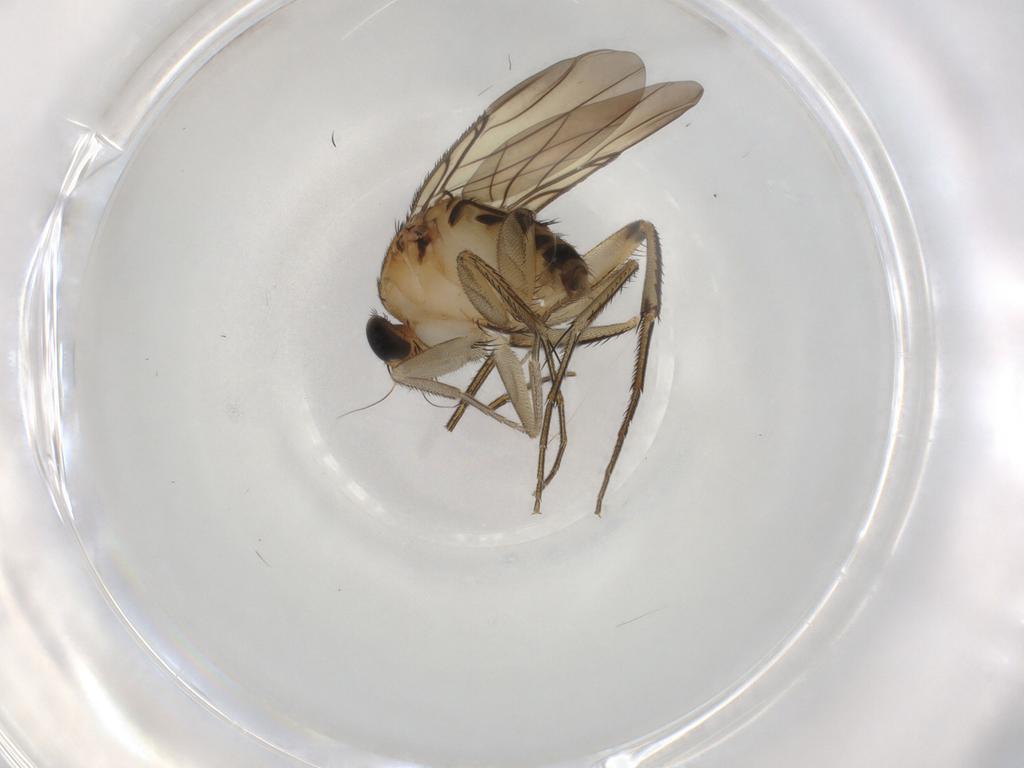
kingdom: Animalia
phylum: Arthropoda
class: Insecta
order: Diptera
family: Phoridae
